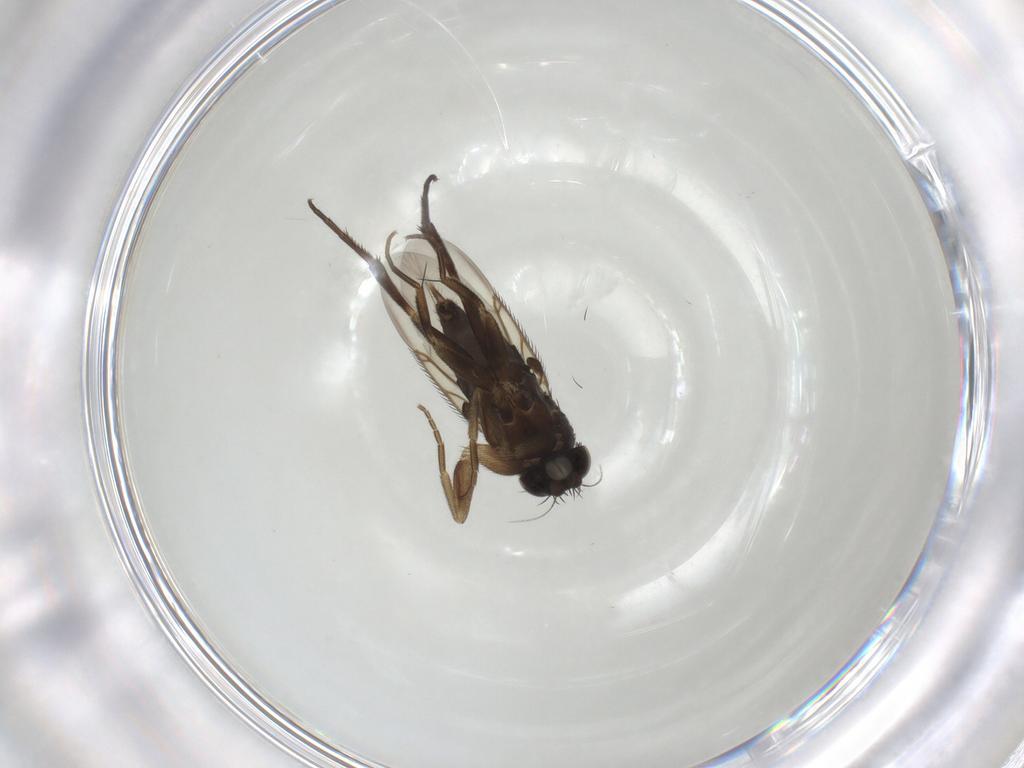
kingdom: Animalia
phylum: Arthropoda
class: Insecta
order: Diptera
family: Phoridae
